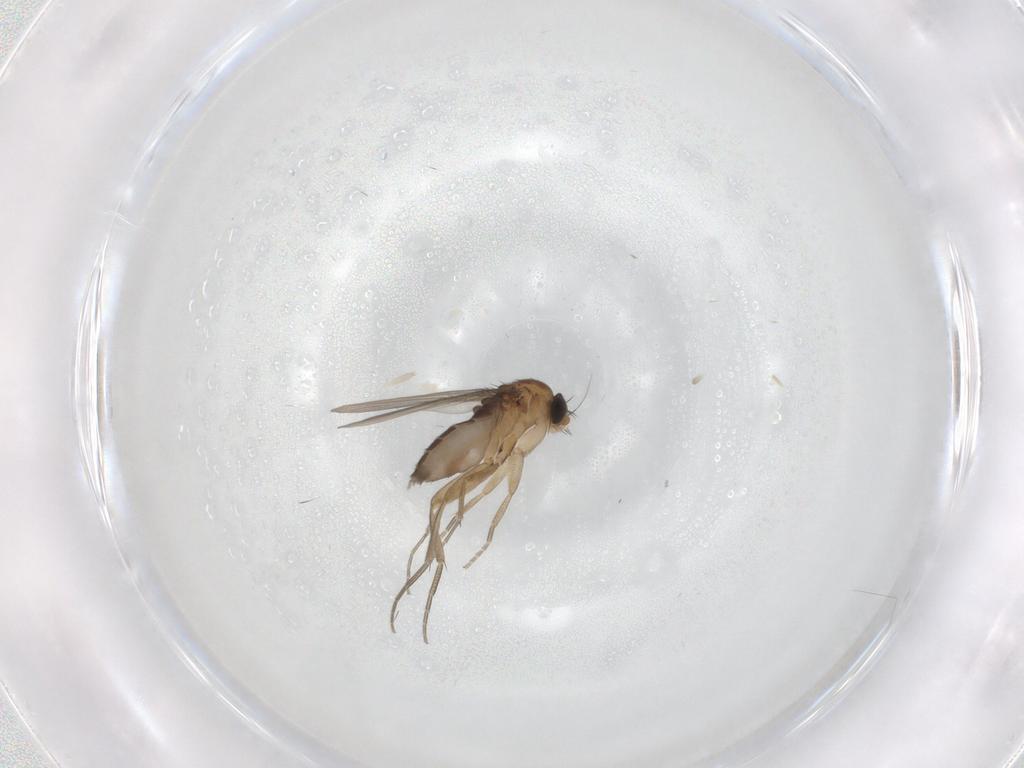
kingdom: Animalia
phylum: Arthropoda
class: Insecta
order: Diptera
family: Phoridae
